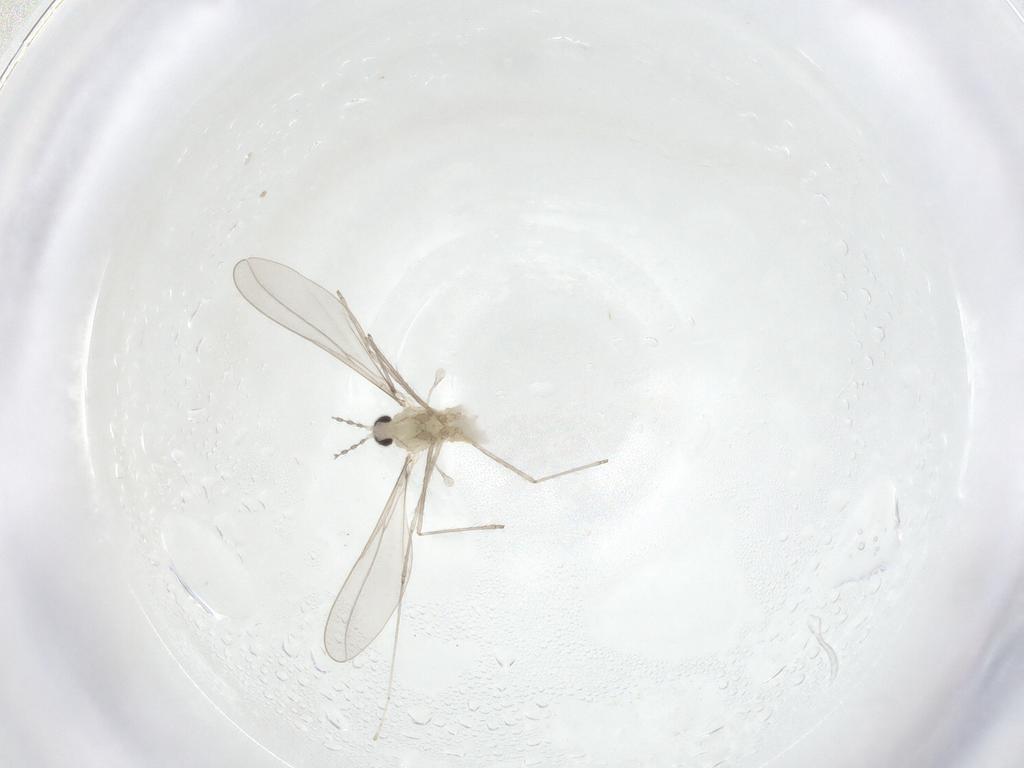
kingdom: Animalia
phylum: Arthropoda
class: Insecta
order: Diptera
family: Cecidomyiidae
